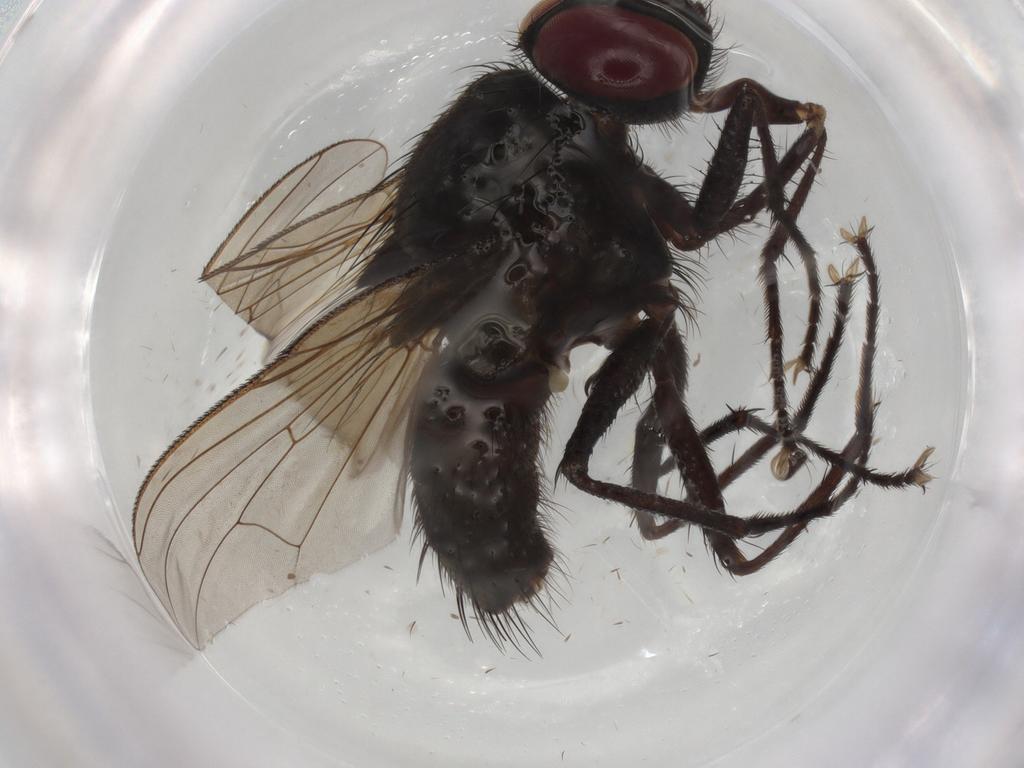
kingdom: Animalia
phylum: Arthropoda
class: Insecta
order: Diptera
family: Muscidae
